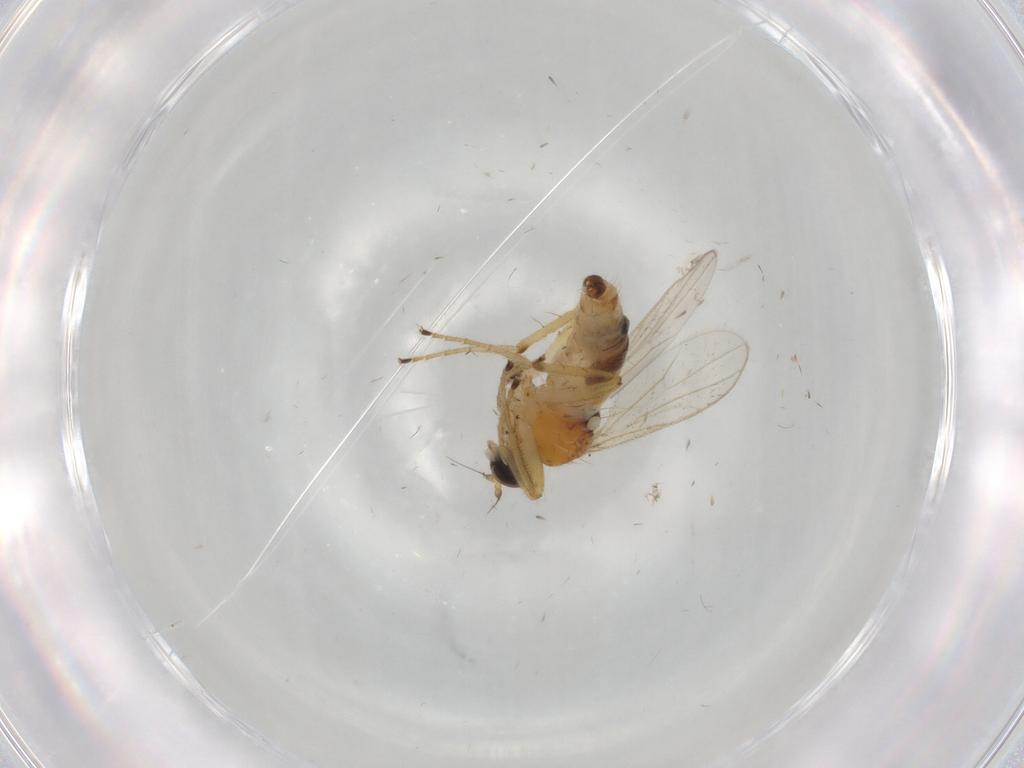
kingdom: Animalia
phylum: Arthropoda
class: Insecta
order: Diptera
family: Hybotidae
